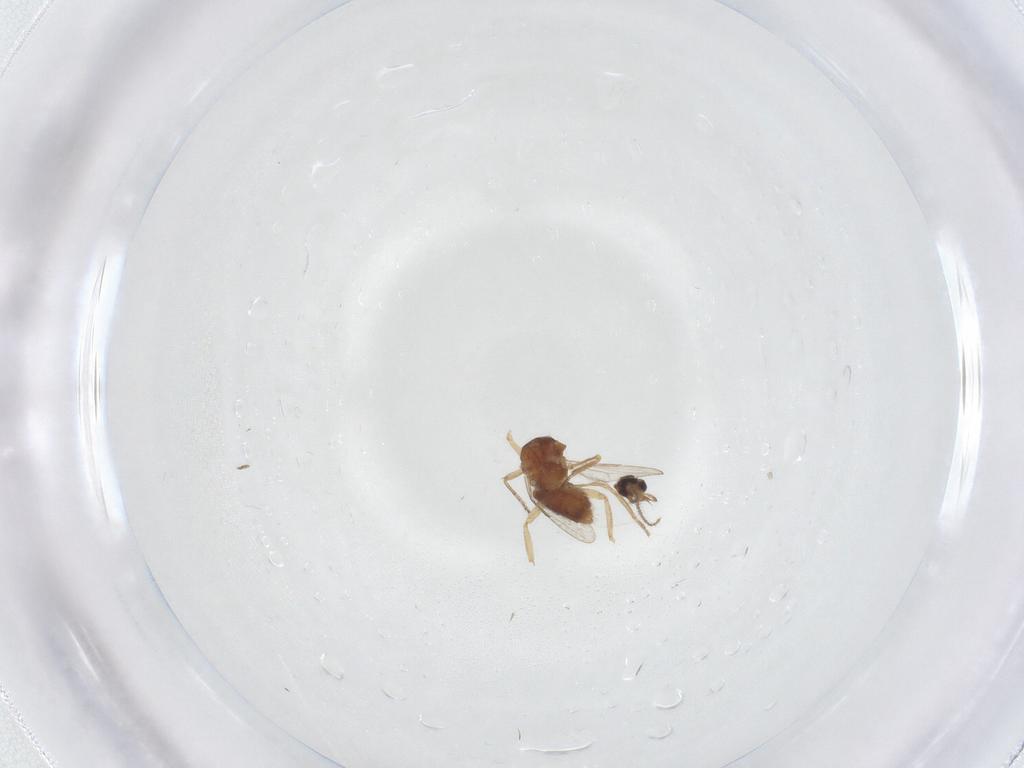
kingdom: Animalia
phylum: Arthropoda
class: Insecta
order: Diptera
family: Ceratopogonidae
